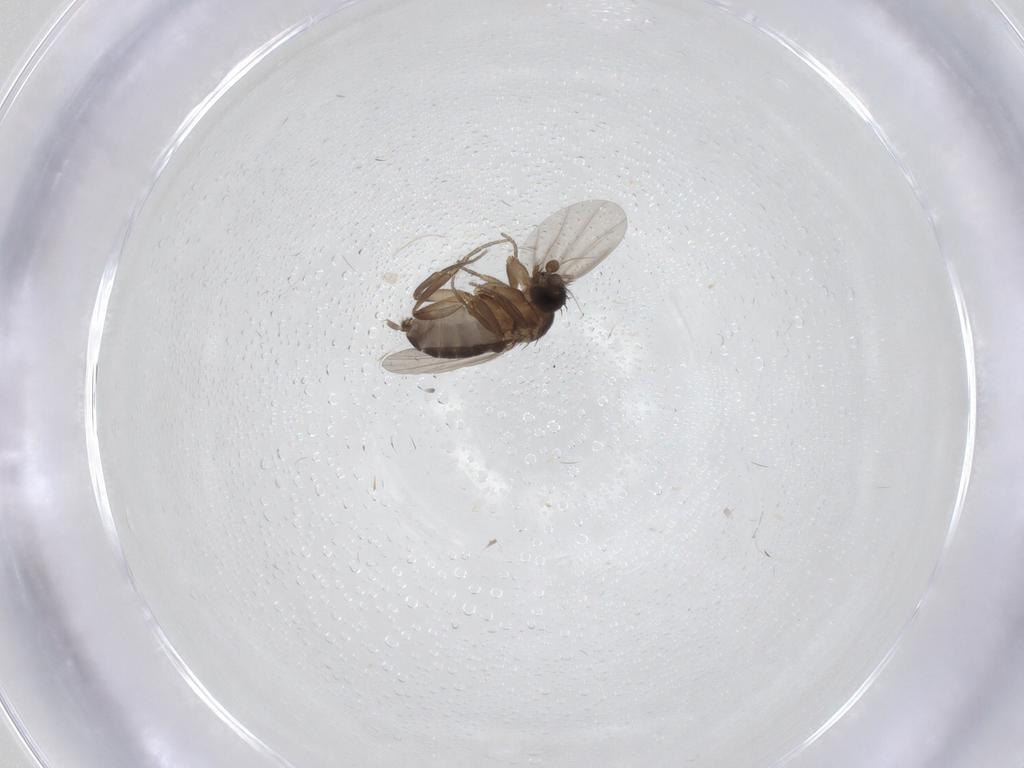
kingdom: Animalia
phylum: Arthropoda
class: Insecta
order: Diptera
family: Phoridae
